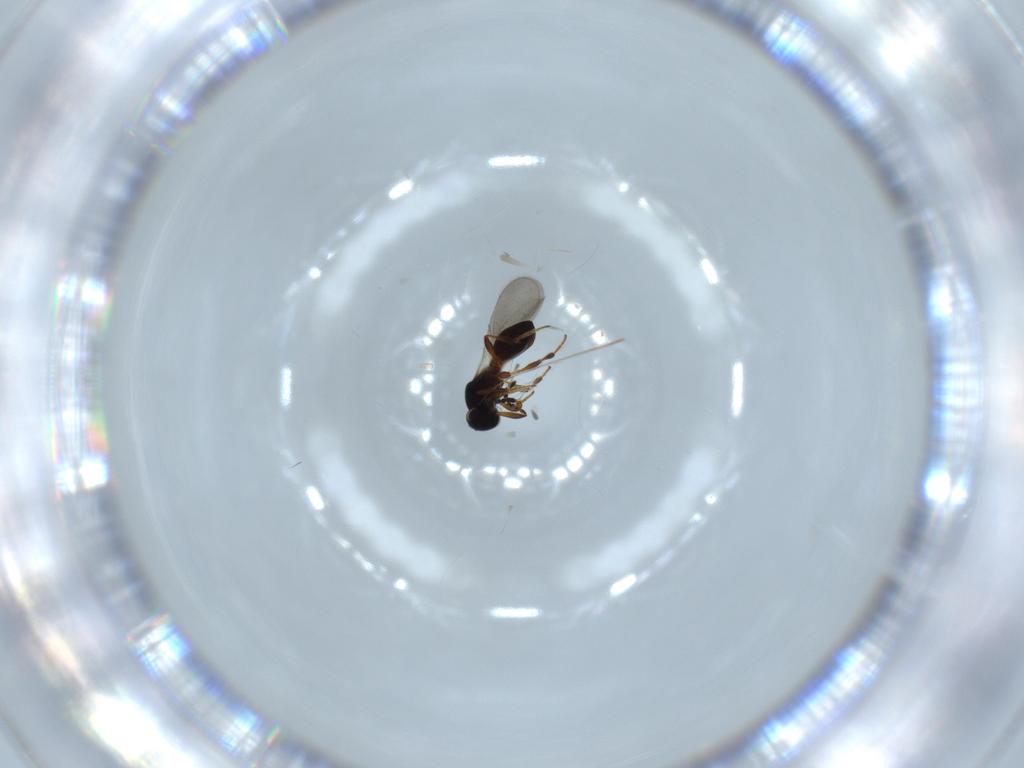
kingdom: Animalia
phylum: Arthropoda
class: Insecta
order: Hymenoptera
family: Platygastridae
